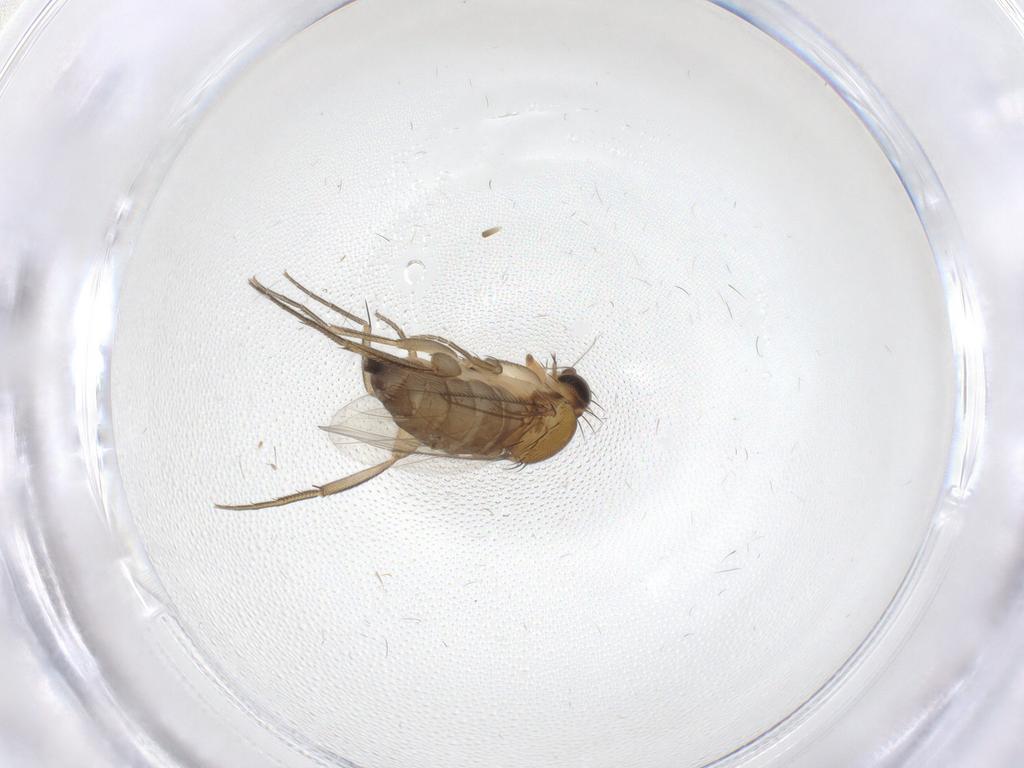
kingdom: Animalia
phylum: Arthropoda
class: Insecta
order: Diptera
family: Phoridae
